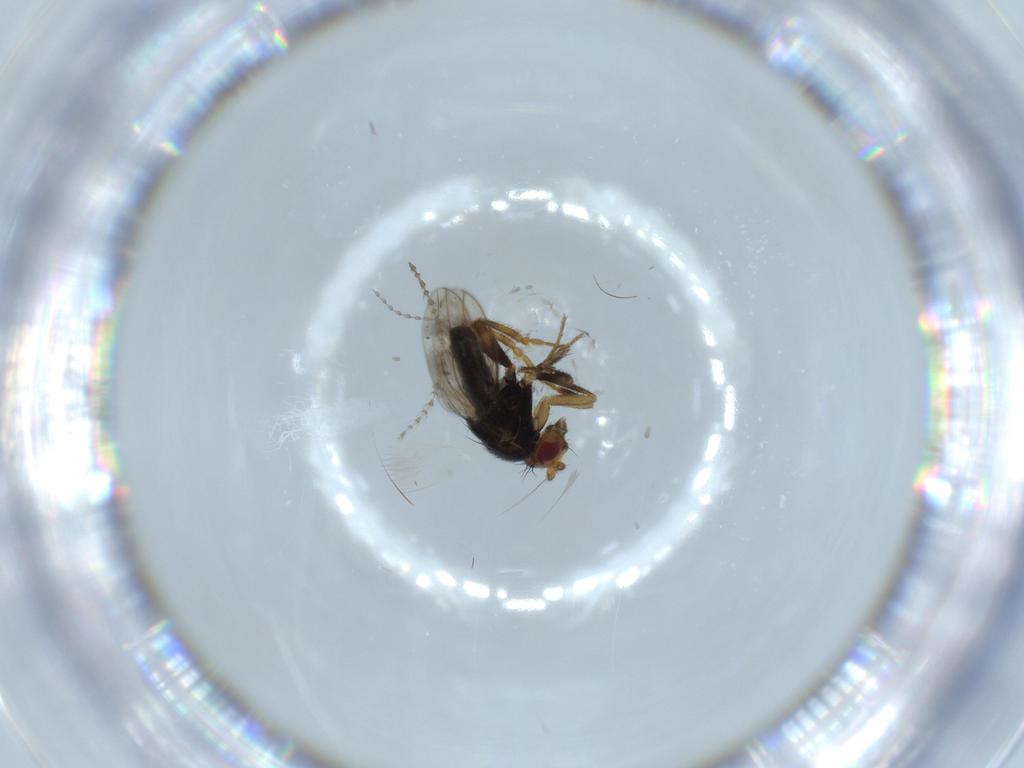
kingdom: Animalia
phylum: Arthropoda
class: Insecta
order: Diptera
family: Sphaeroceridae
